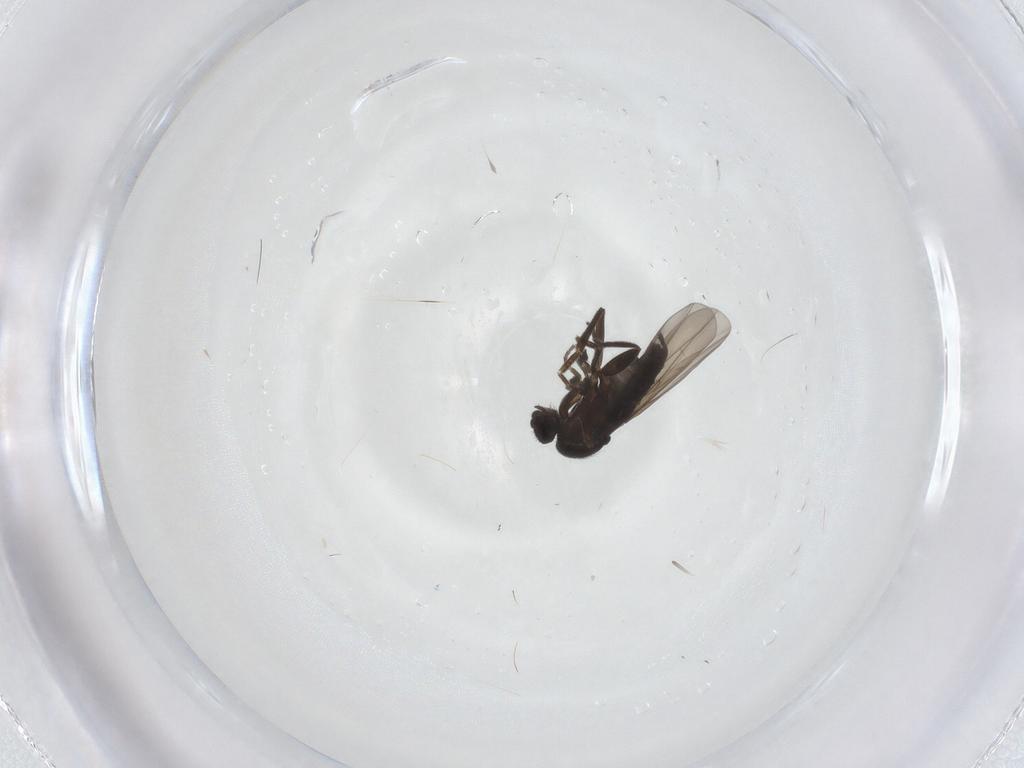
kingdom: Animalia
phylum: Arthropoda
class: Insecta
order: Diptera
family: Phoridae
